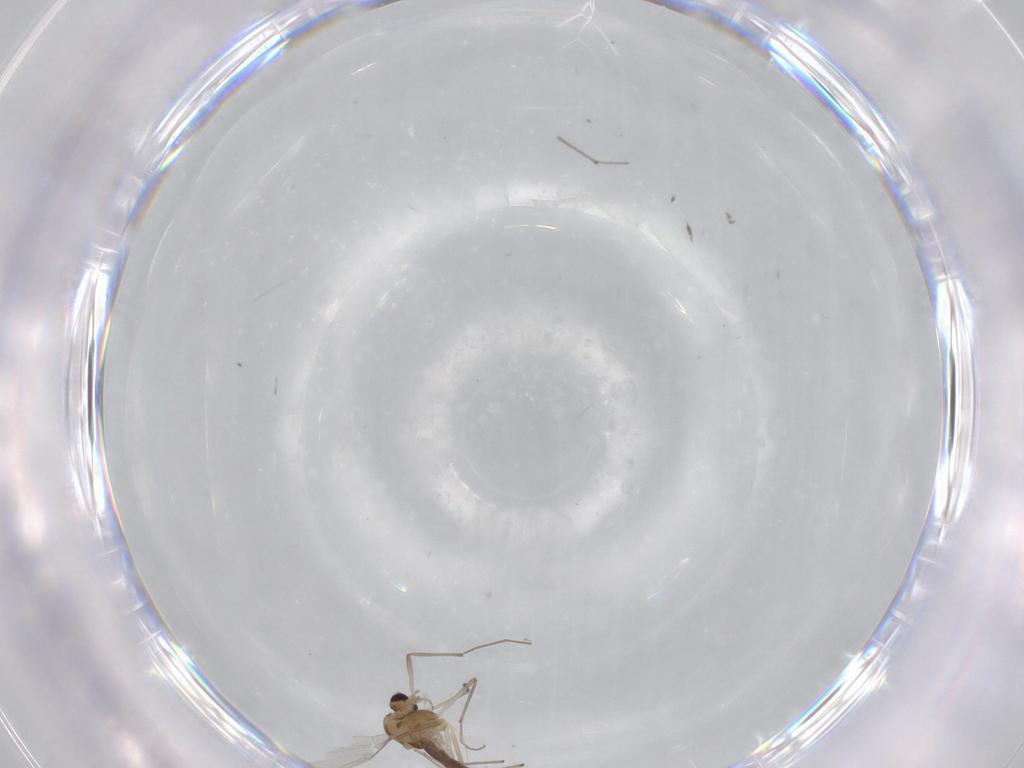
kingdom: Animalia
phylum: Arthropoda
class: Insecta
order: Diptera
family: Chironomidae
